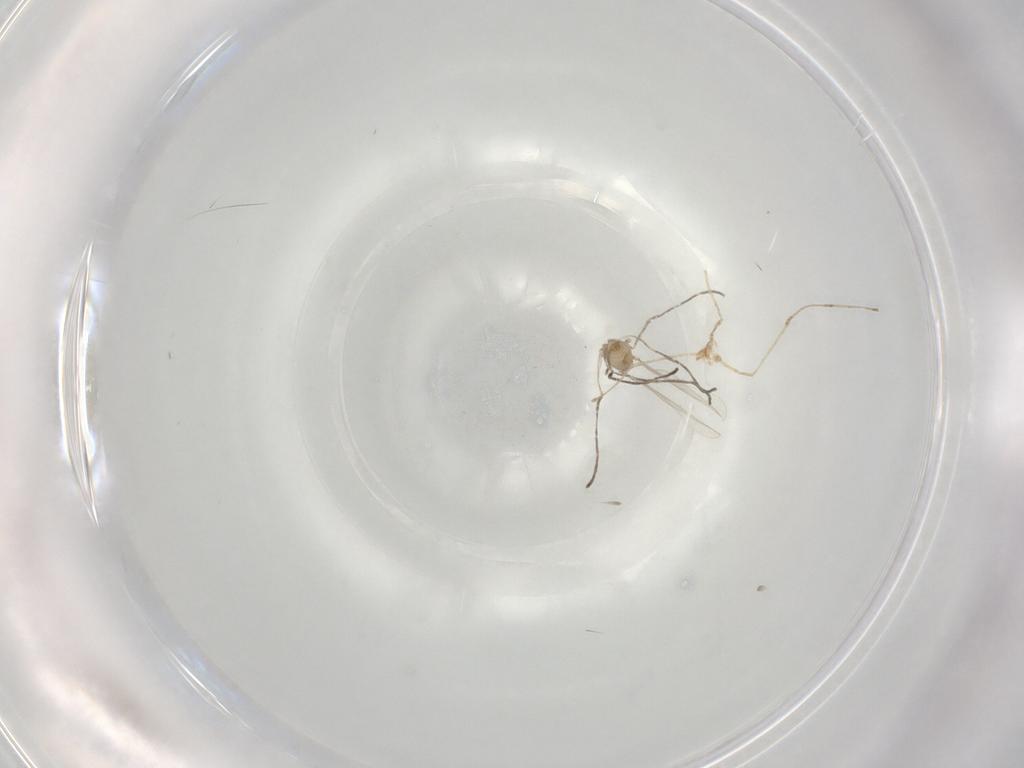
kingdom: Animalia
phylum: Arthropoda
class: Insecta
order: Diptera
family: Cecidomyiidae
